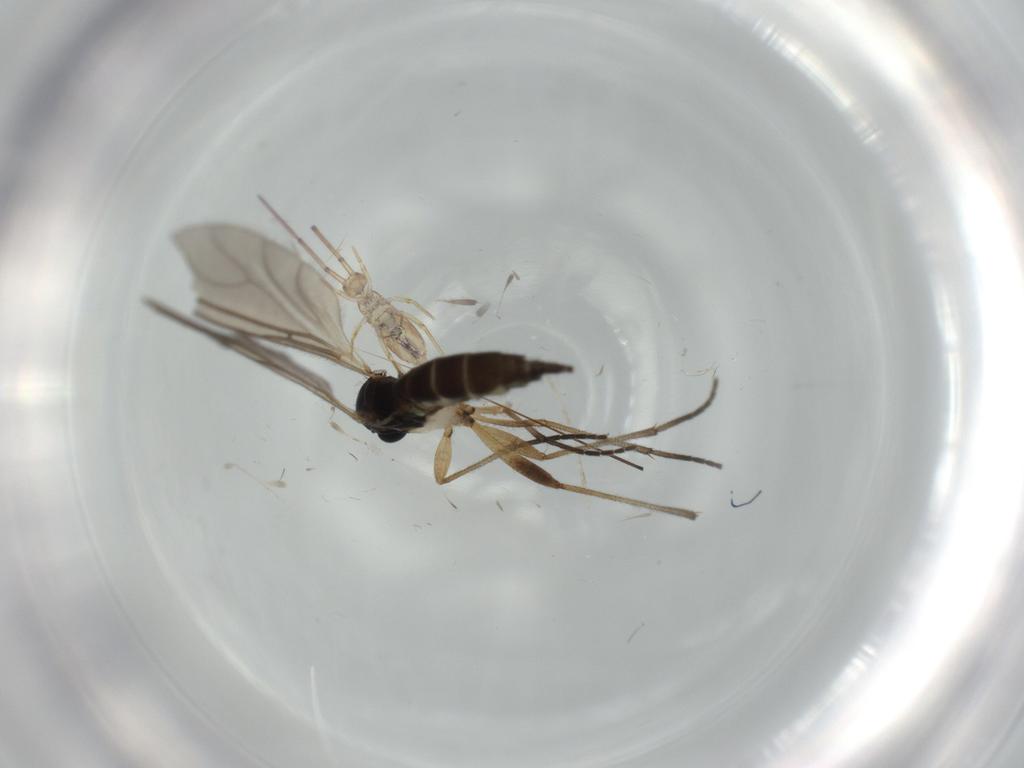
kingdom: Animalia
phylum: Arthropoda
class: Insecta
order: Diptera
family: Sciaridae
